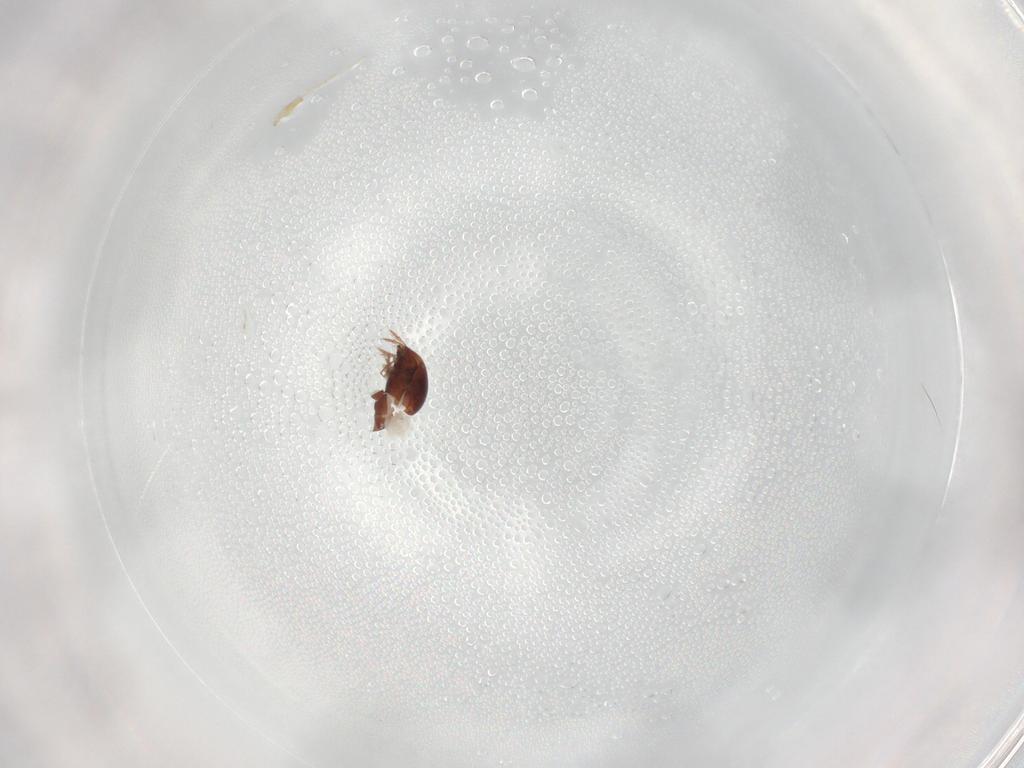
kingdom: Animalia
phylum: Arthropoda
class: Arachnida
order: Sarcoptiformes
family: Galumnidae
